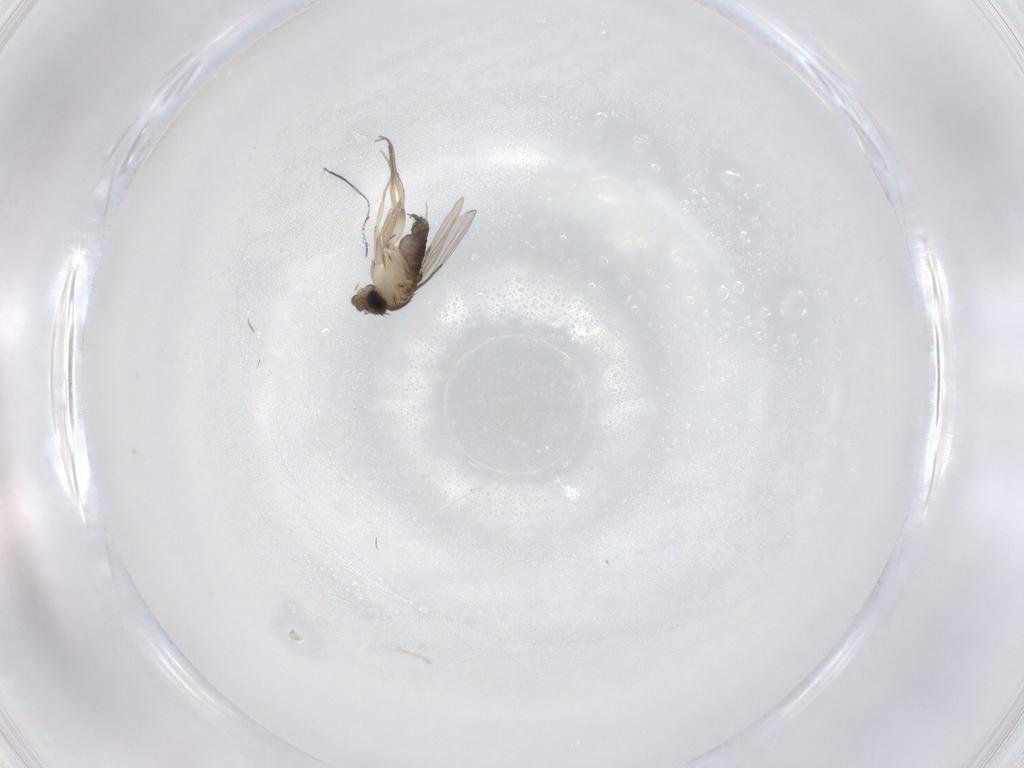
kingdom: Animalia
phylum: Arthropoda
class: Insecta
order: Diptera
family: Phoridae
